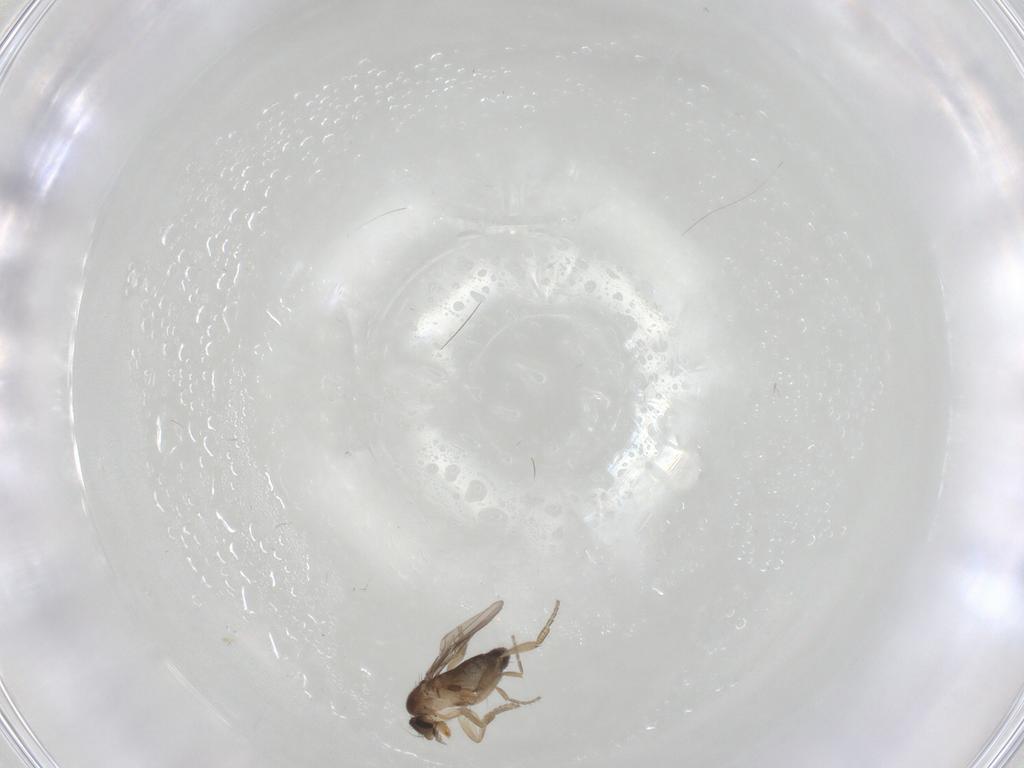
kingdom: Animalia
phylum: Arthropoda
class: Insecta
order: Diptera
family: Phoridae
